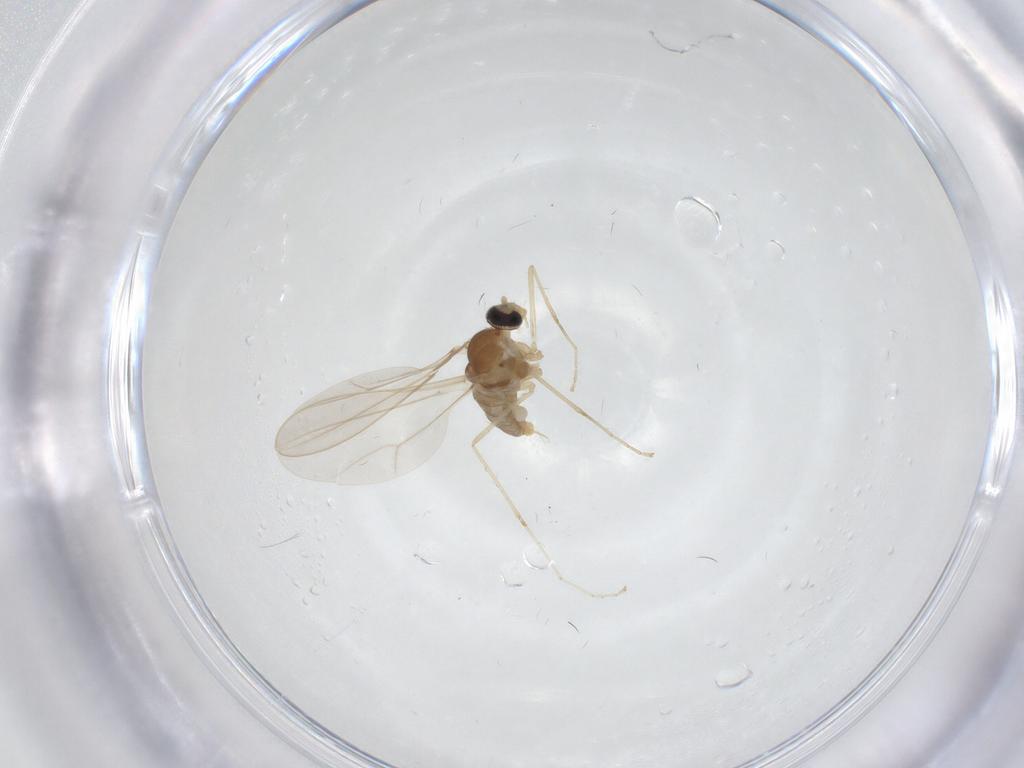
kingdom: Animalia
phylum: Arthropoda
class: Insecta
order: Diptera
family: Cecidomyiidae
